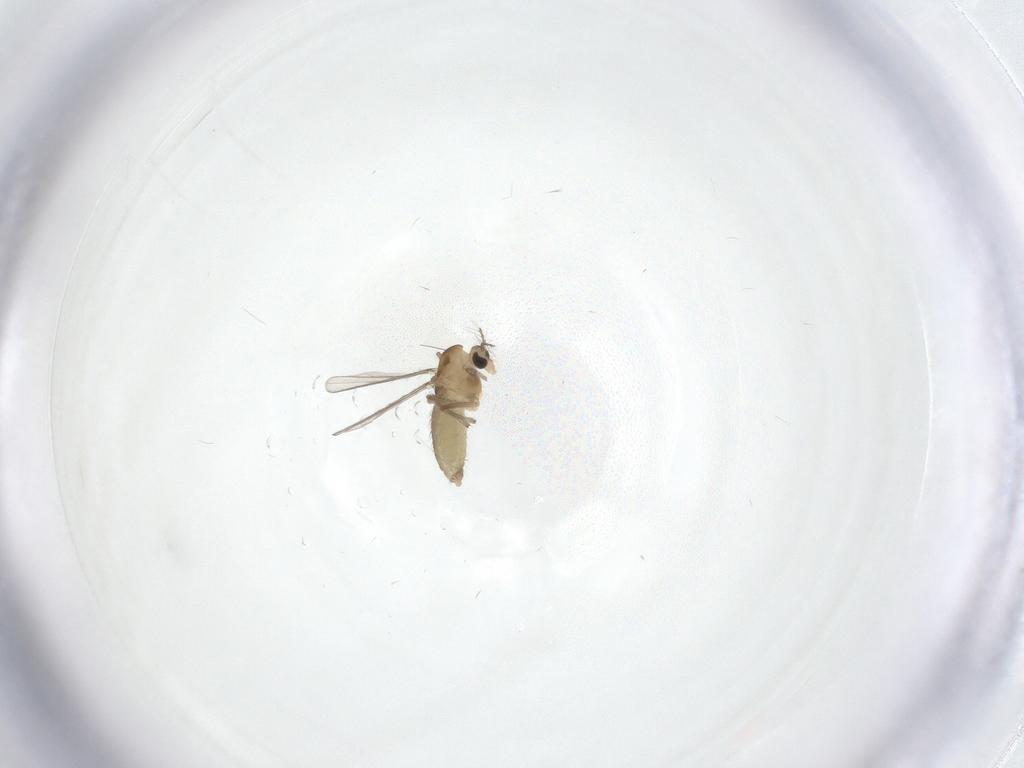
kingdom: Animalia
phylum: Arthropoda
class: Insecta
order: Diptera
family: Chironomidae
